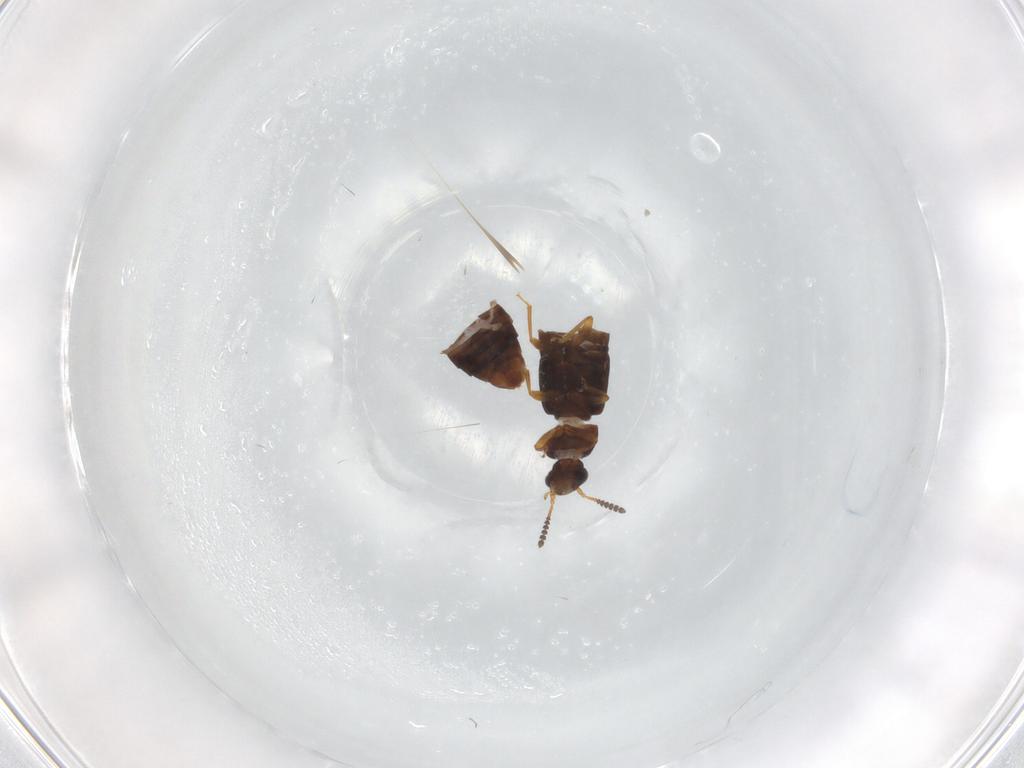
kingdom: Animalia
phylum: Arthropoda
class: Insecta
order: Coleoptera
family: Staphylinidae
